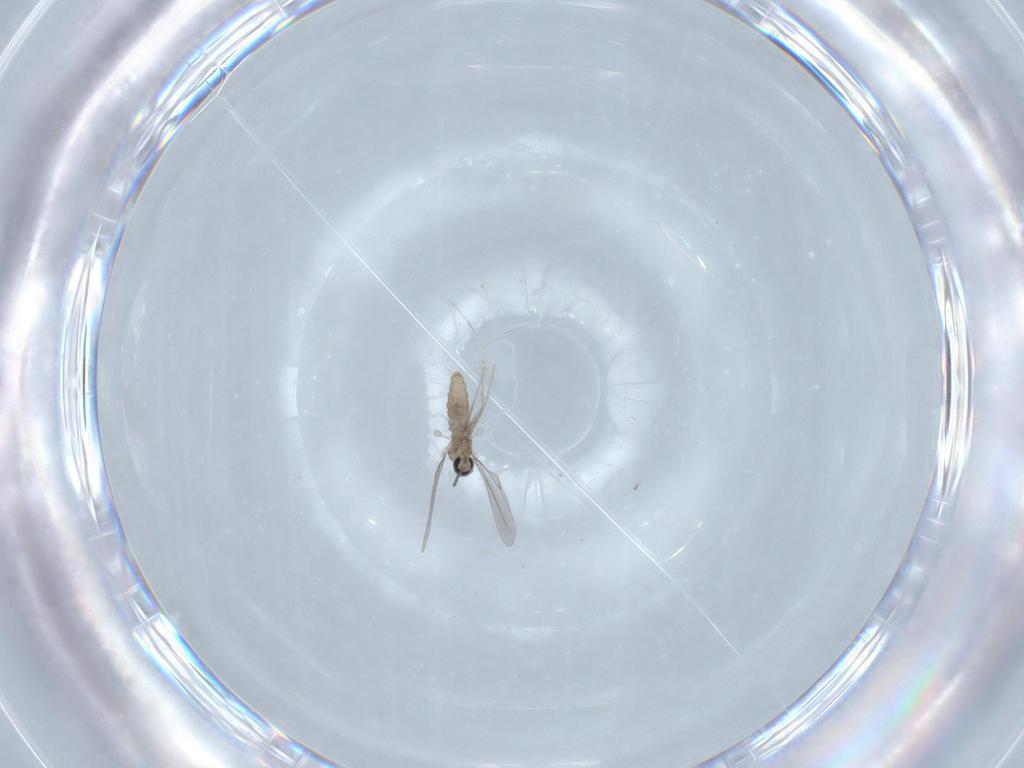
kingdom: Animalia
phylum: Arthropoda
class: Insecta
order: Diptera
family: Cecidomyiidae
